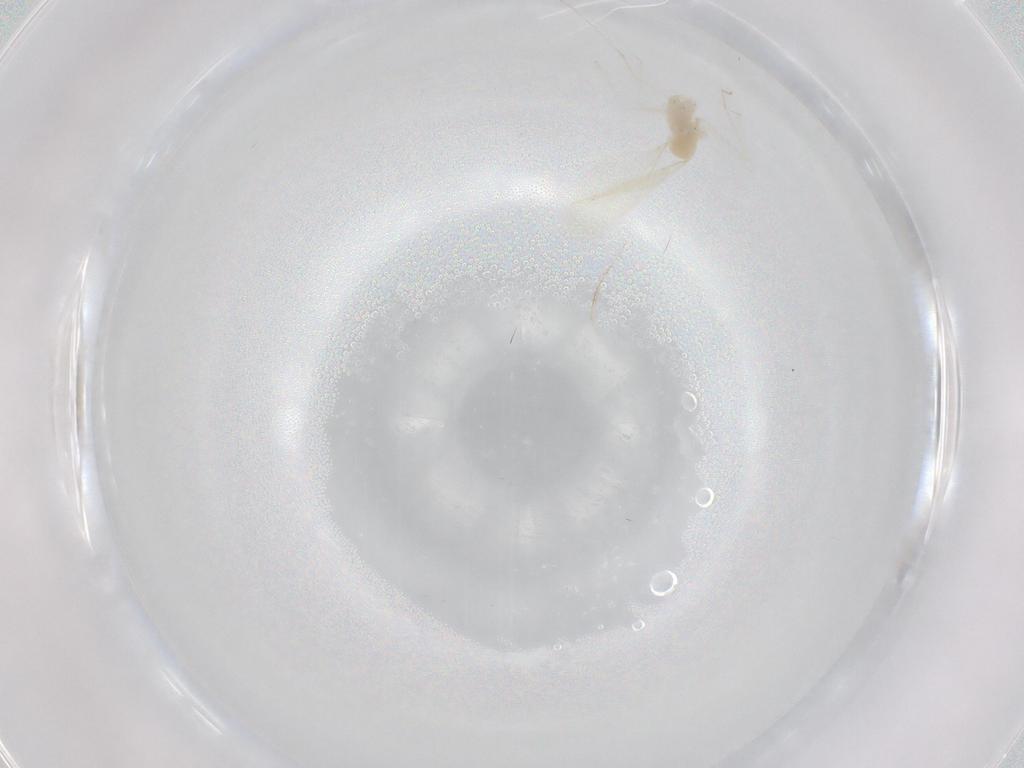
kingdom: Animalia
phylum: Arthropoda
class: Insecta
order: Diptera
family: Cecidomyiidae
